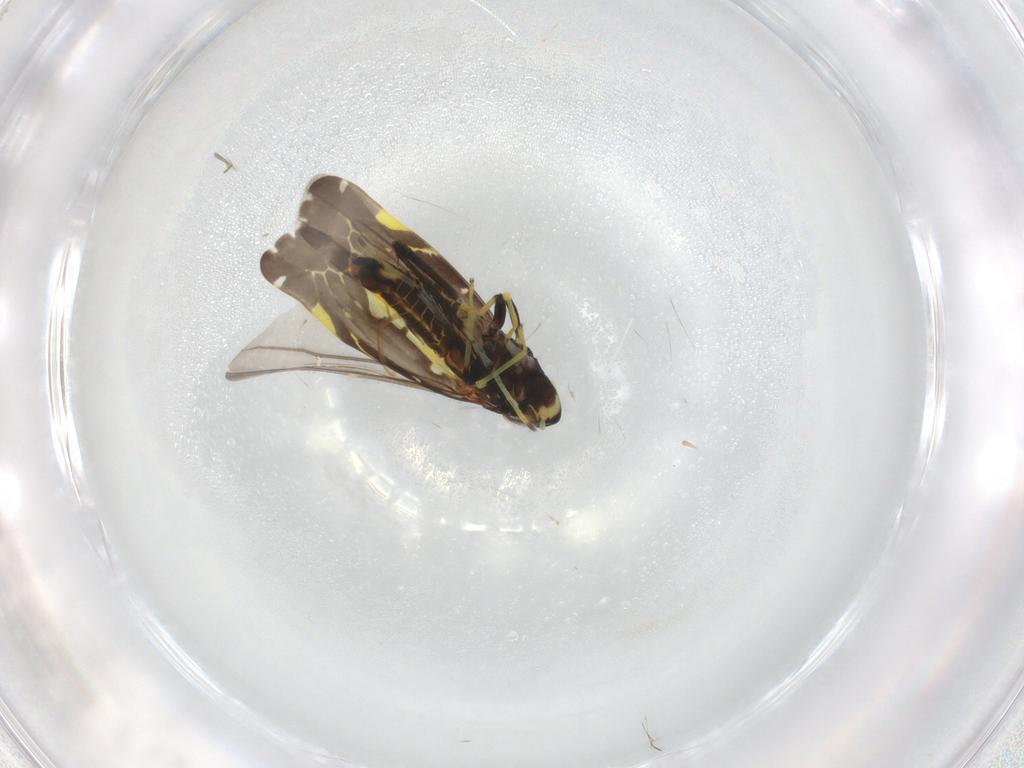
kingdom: Animalia
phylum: Arthropoda
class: Insecta
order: Hemiptera
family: Cicadellidae
